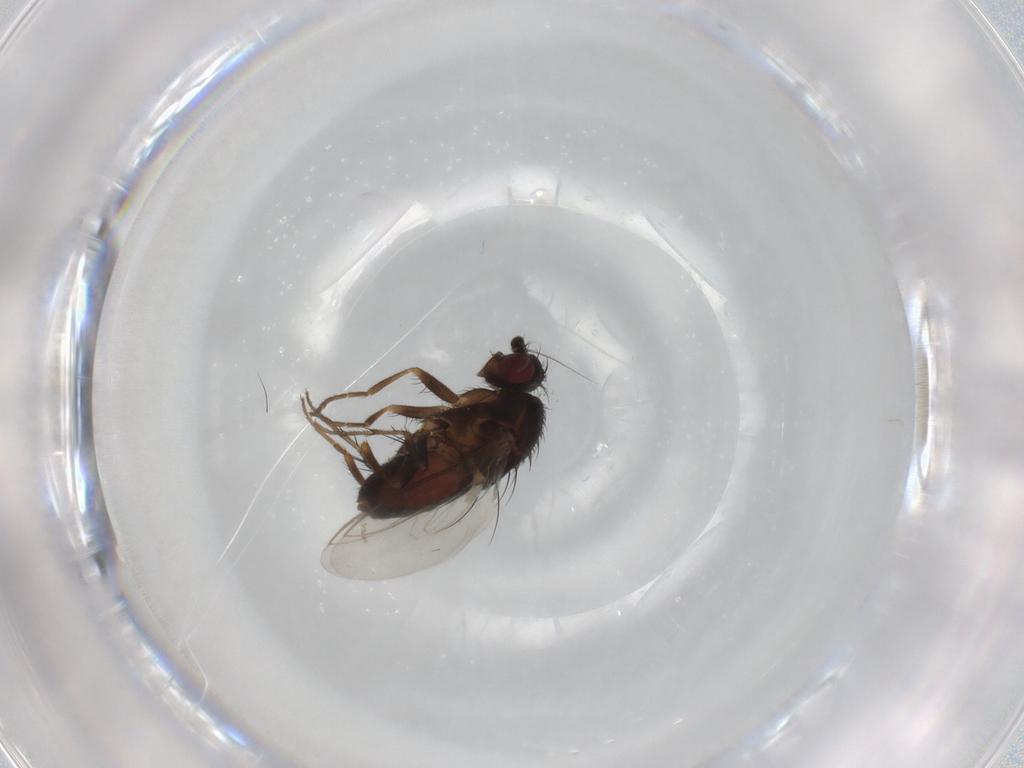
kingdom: Animalia
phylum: Arthropoda
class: Insecta
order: Diptera
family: Sphaeroceridae
